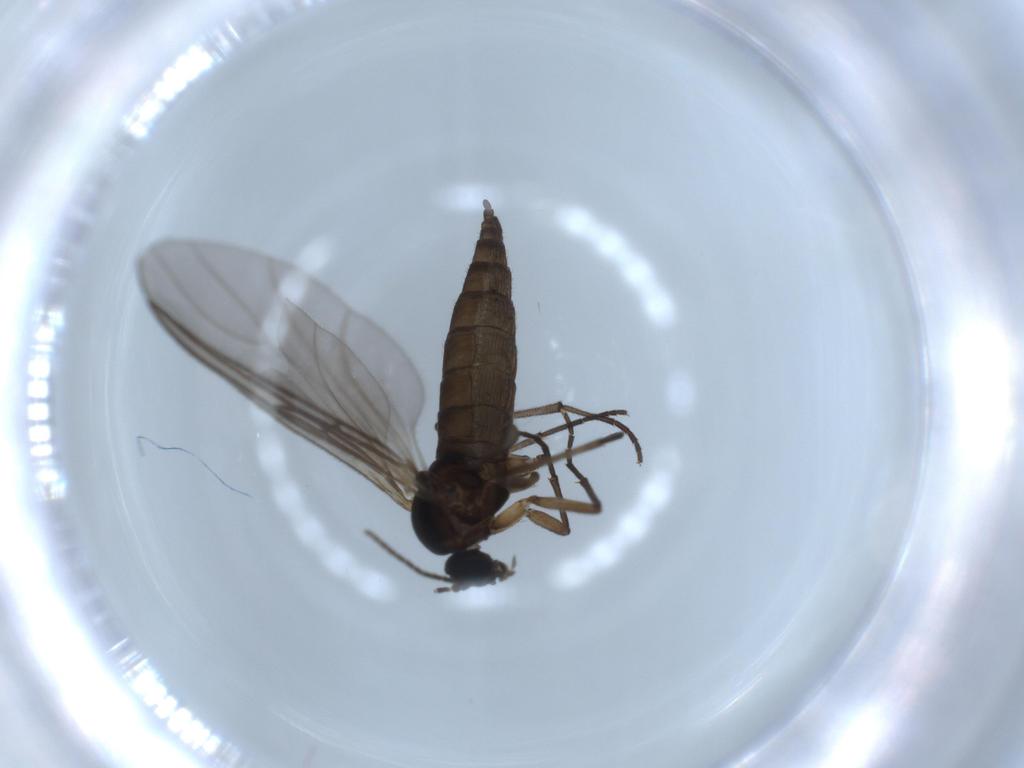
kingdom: Animalia
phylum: Arthropoda
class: Insecta
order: Diptera
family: Sciaridae
